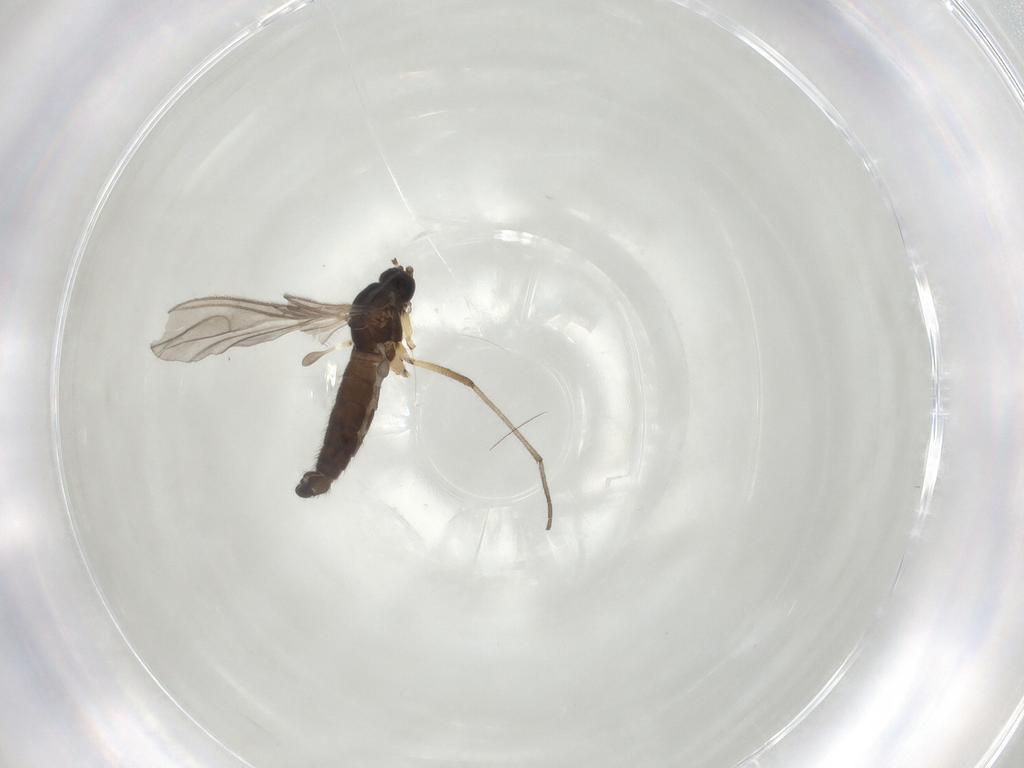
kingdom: Animalia
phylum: Arthropoda
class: Insecta
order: Diptera
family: Sciaridae
